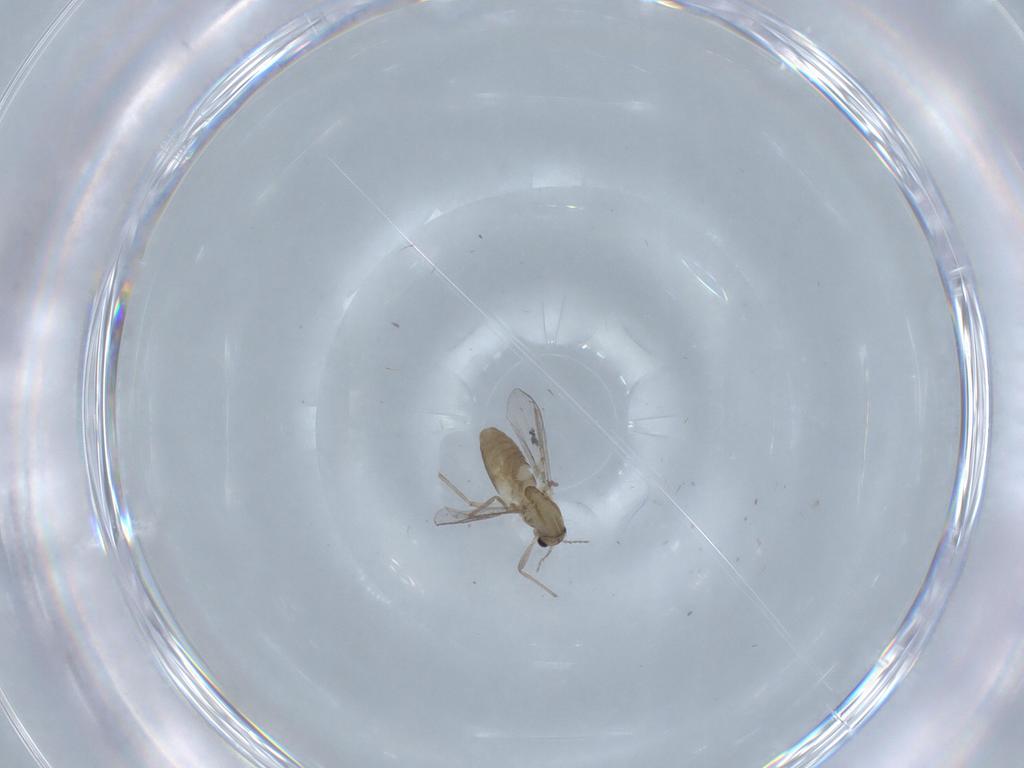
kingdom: Animalia
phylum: Arthropoda
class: Insecta
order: Diptera
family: Chironomidae
